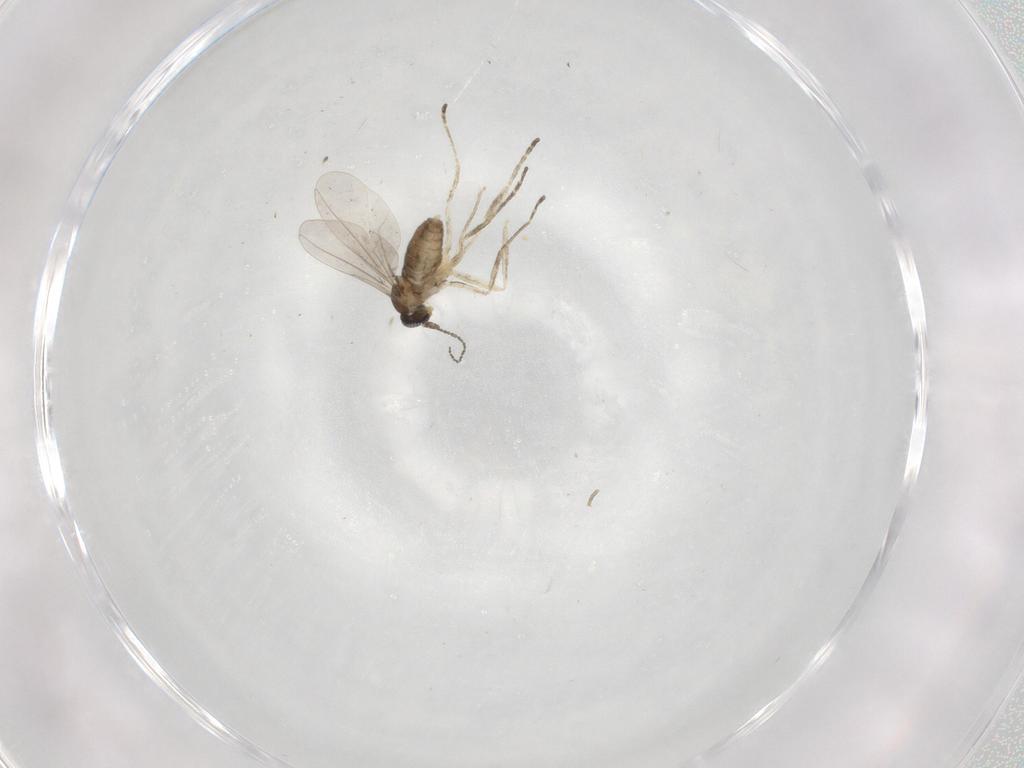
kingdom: Animalia
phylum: Arthropoda
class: Insecta
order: Diptera
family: Cecidomyiidae
